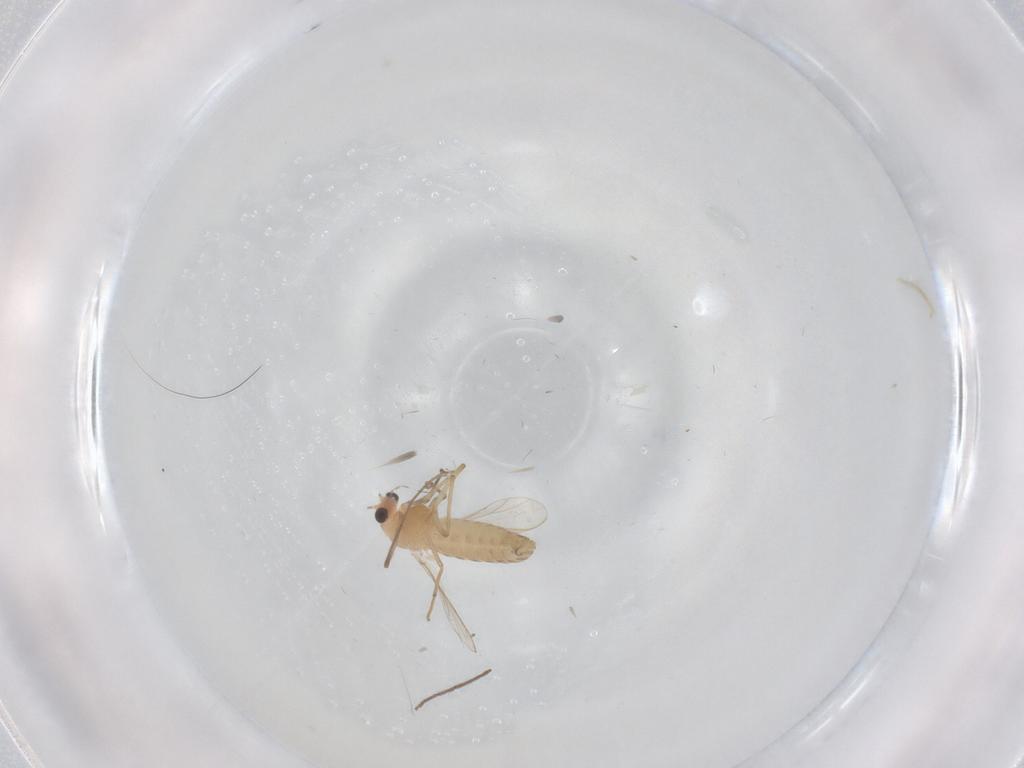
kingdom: Animalia
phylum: Arthropoda
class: Insecta
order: Diptera
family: Chironomidae
